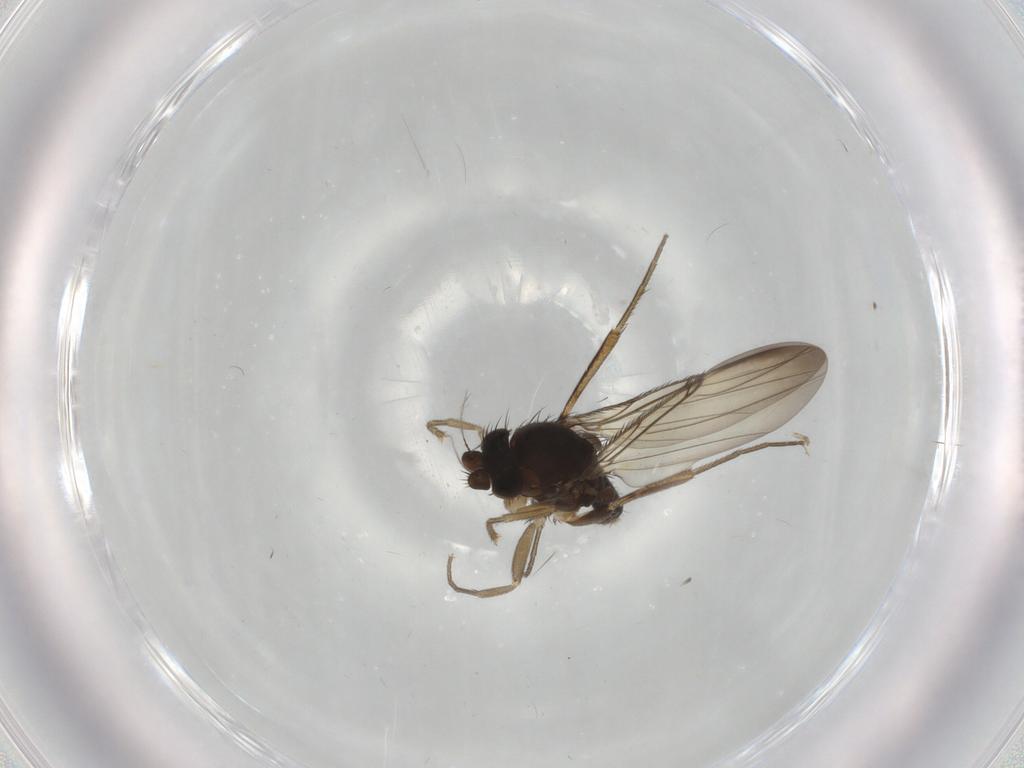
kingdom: Animalia
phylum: Arthropoda
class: Insecta
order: Diptera
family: Phoridae
